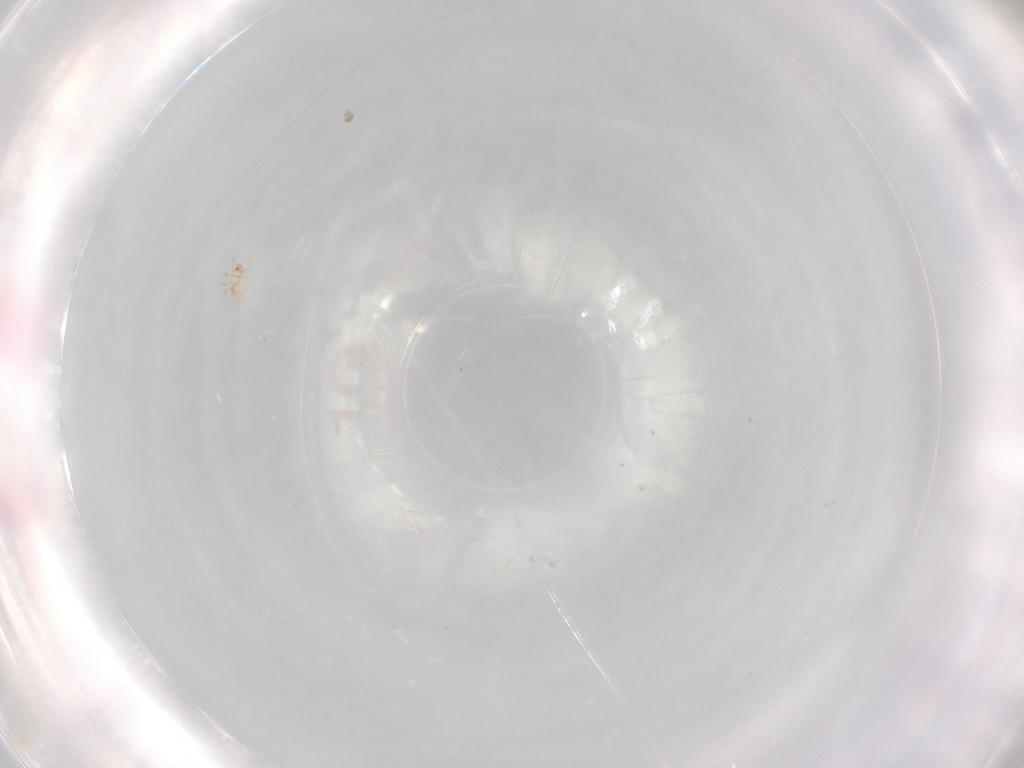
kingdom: Animalia
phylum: Arthropoda
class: Arachnida
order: Sarcoptiformes
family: Oribatulidae
